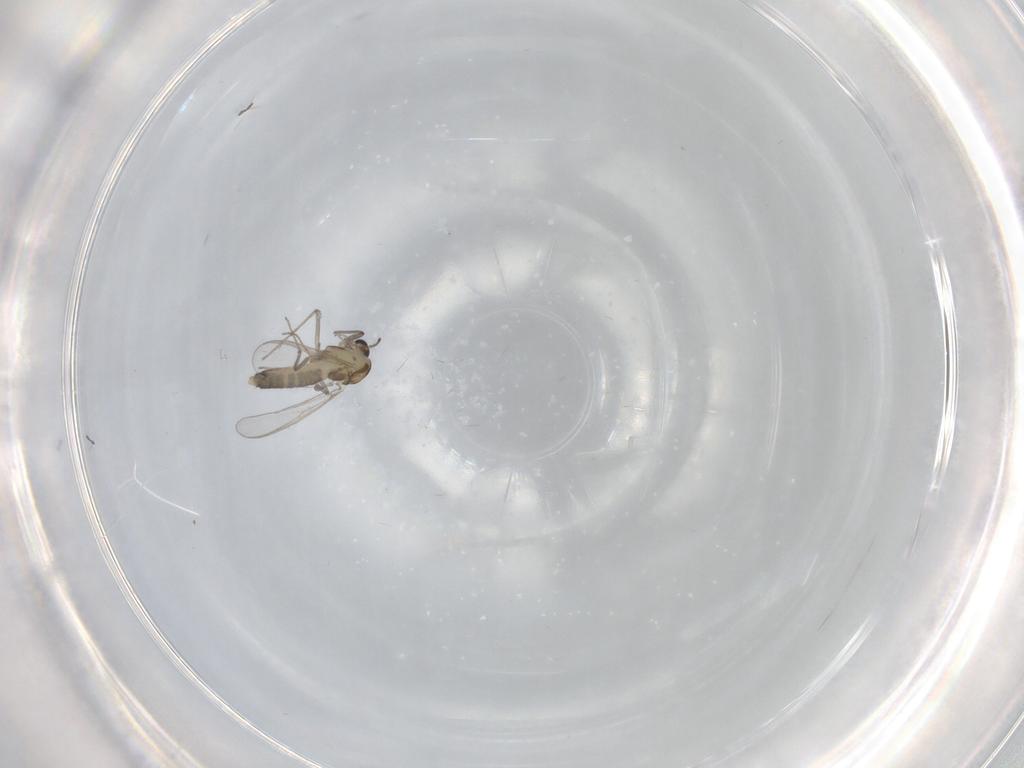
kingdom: Animalia
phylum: Arthropoda
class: Insecta
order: Diptera
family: Chironomidae
